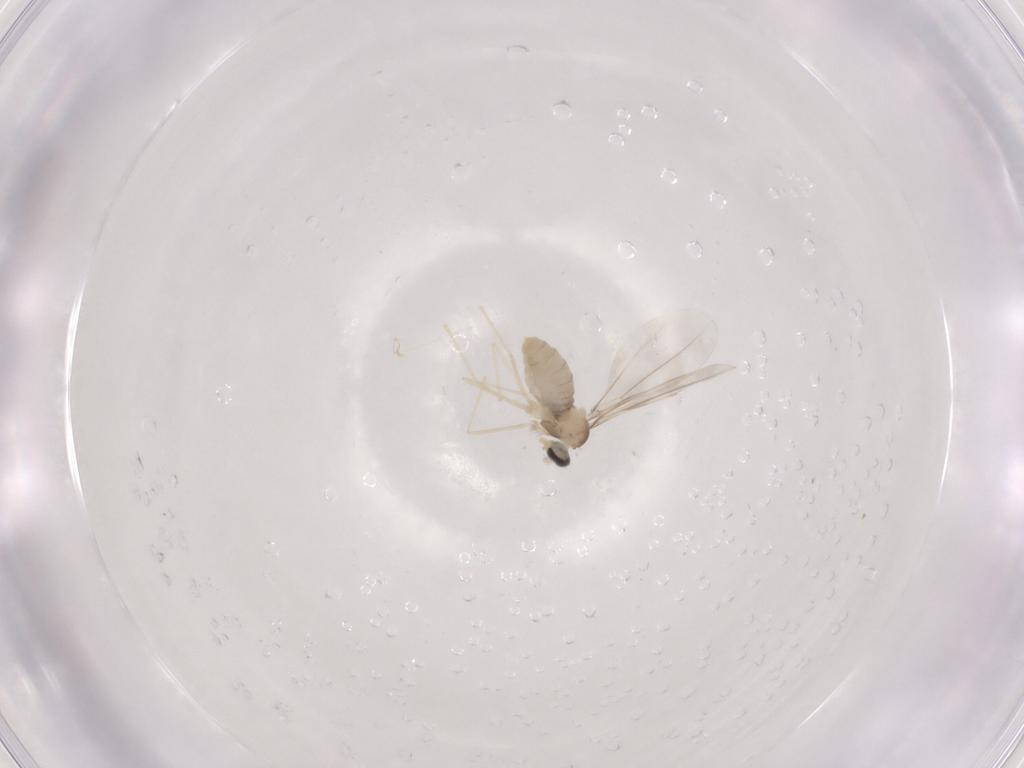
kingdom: Animalia
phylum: Arthropoda
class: Insecta
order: Diptera
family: Cecidomyiidae
